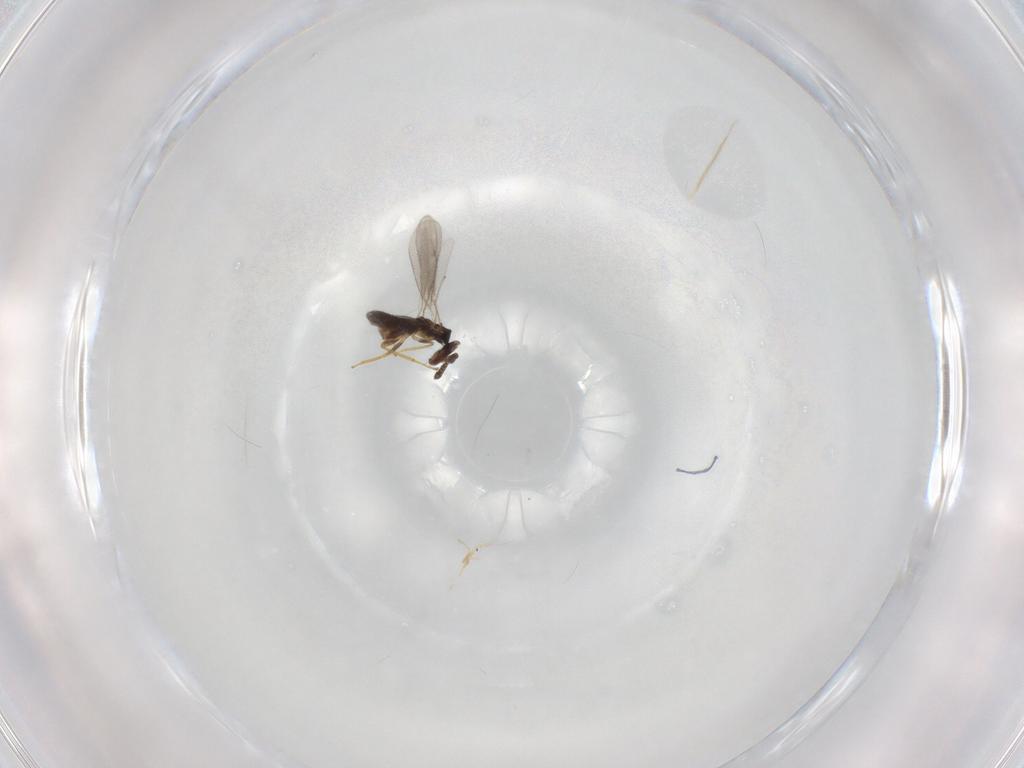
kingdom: Animalia
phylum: Arthropoda
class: Insecta
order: Hymenoptera
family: Eulophidae
